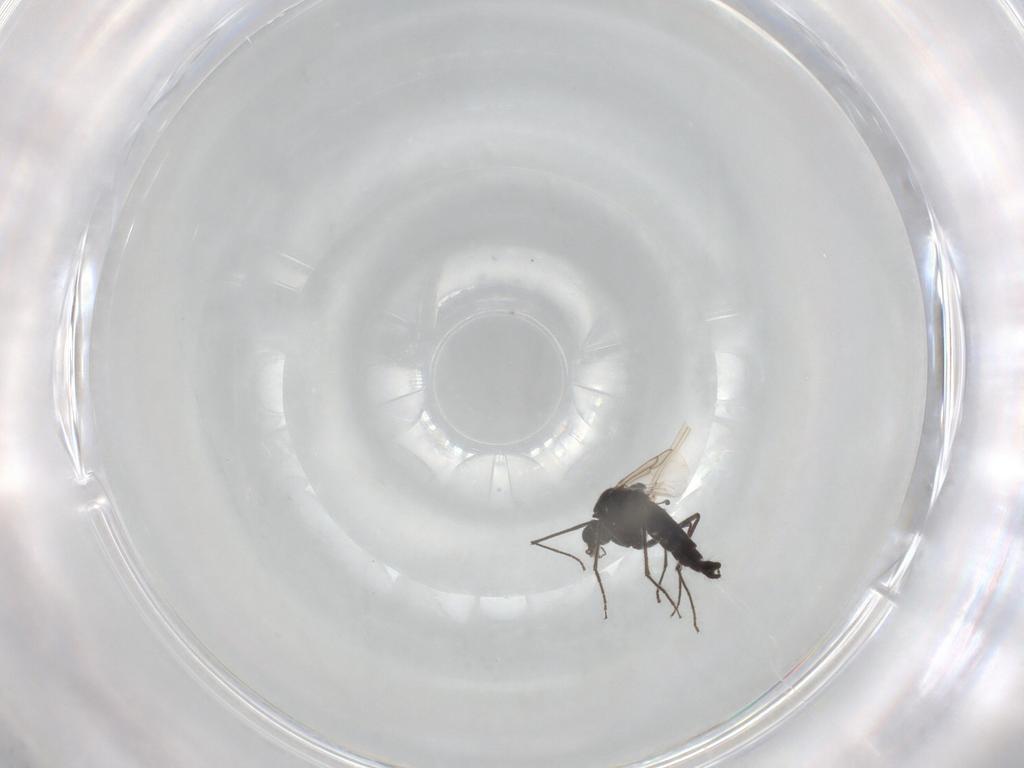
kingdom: Animalia
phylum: Arthropoda
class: Insecta
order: Diptera
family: Chironomidae
